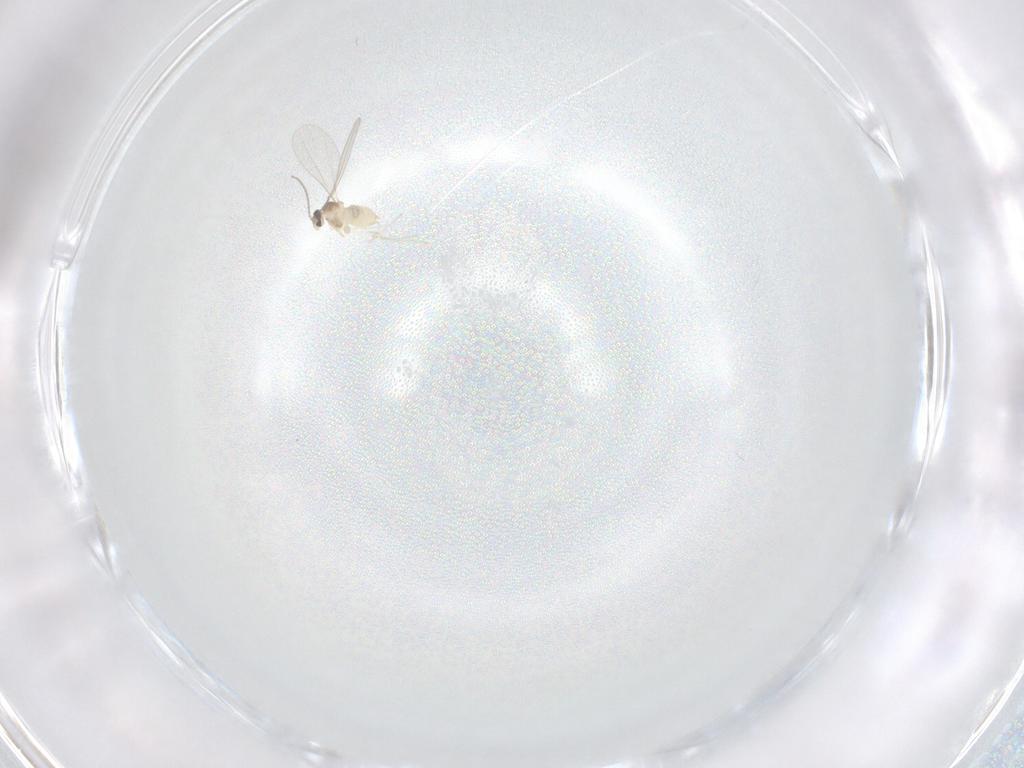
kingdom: Animalia
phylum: Arthropoda
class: Insecta
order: Diptera
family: Cecidomyiidae
